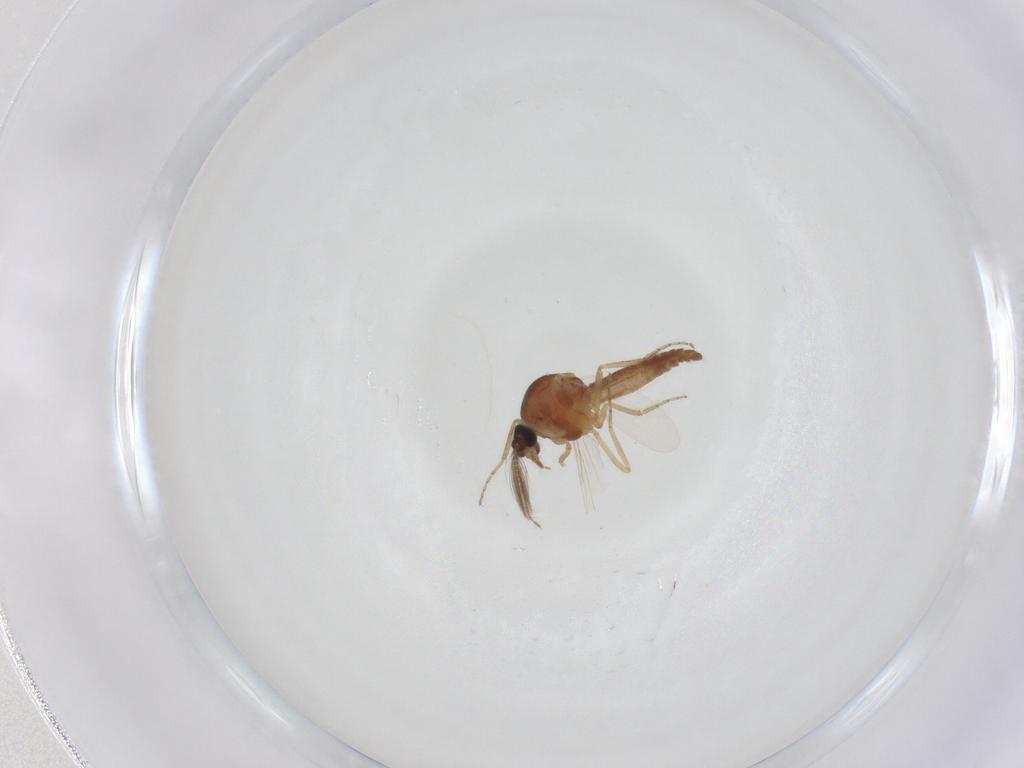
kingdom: Animalia
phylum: Arthropoda
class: Insecta
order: Diptera
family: Ceratopogonidae
